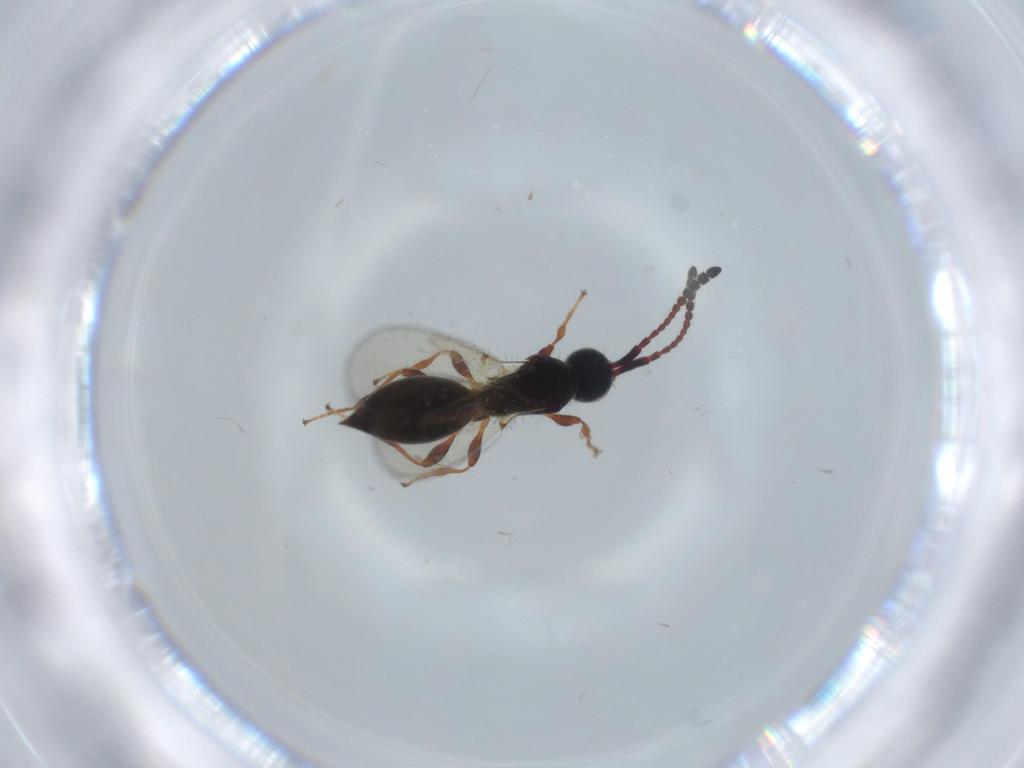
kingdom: Animalia
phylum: Arthropoda
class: Insecta
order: Hymenoptera
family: Diapriidae
